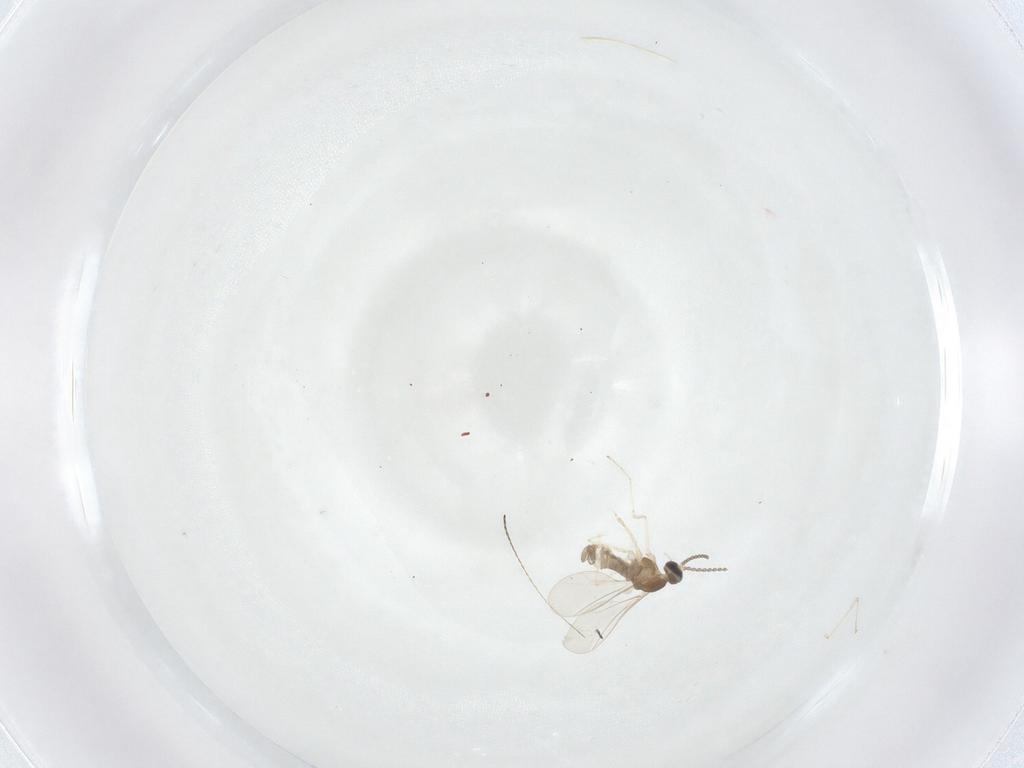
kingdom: Animalia
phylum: Arthropoda
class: Insecta
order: Diptera
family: Cecidomyiidae
